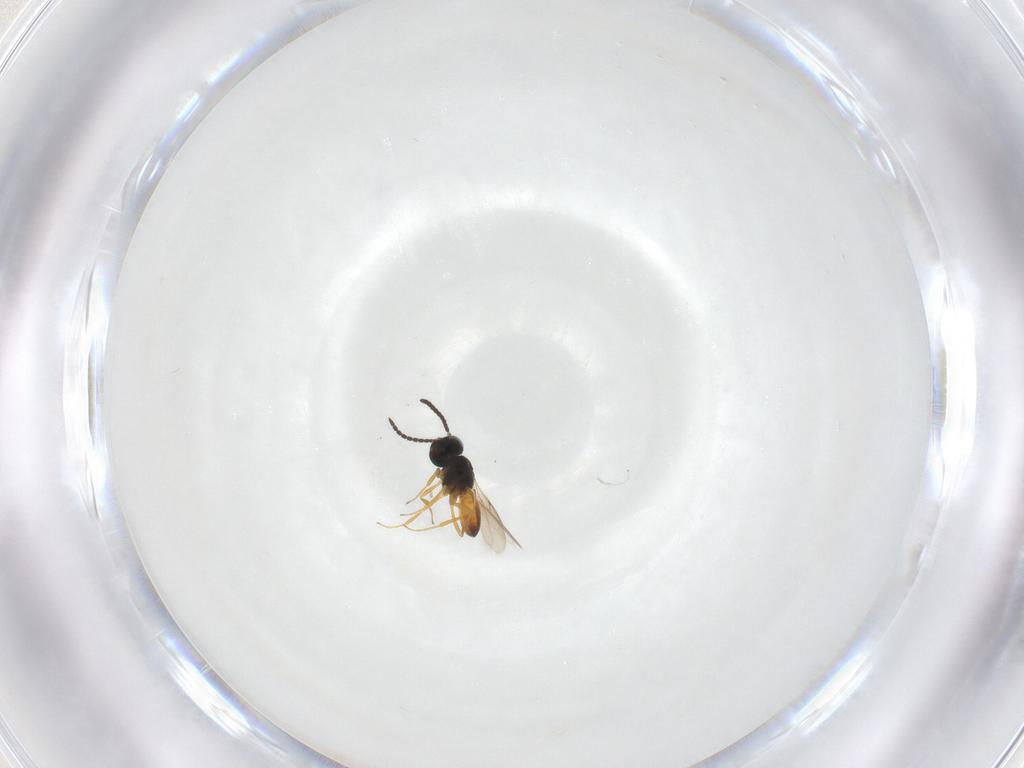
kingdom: Animalia
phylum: Arthropoda
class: Insecta
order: Hymenoptera
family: Scelionidae
